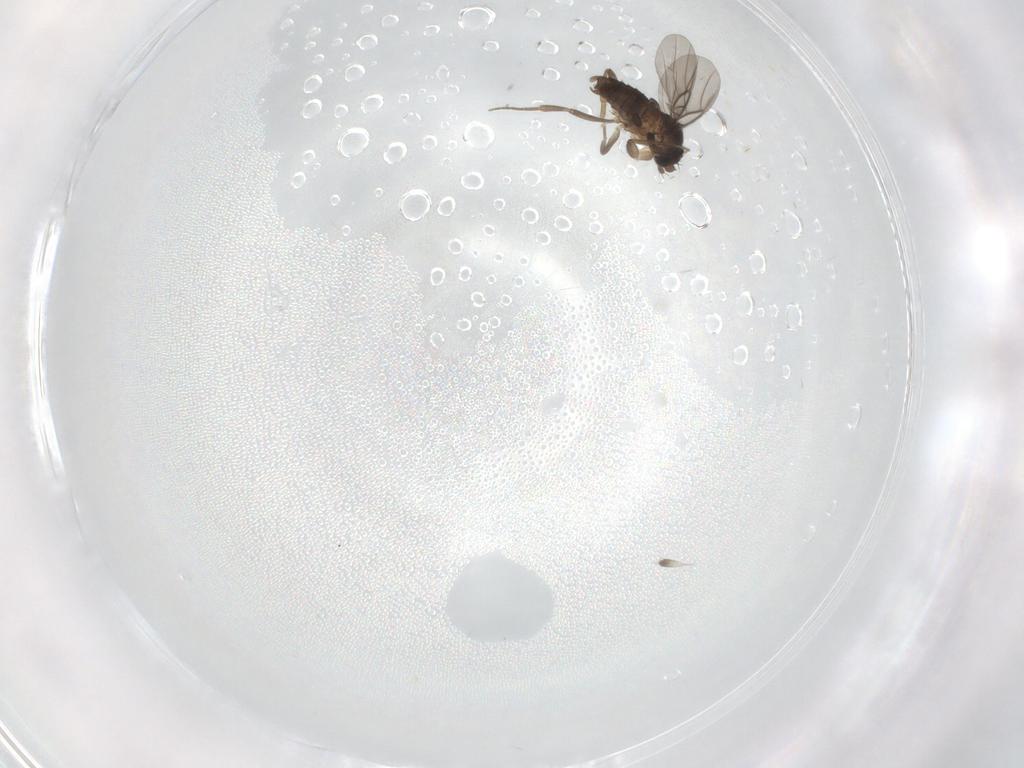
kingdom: Animalia
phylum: Arthropoda
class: Insecta
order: Diptera
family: Phoridae
